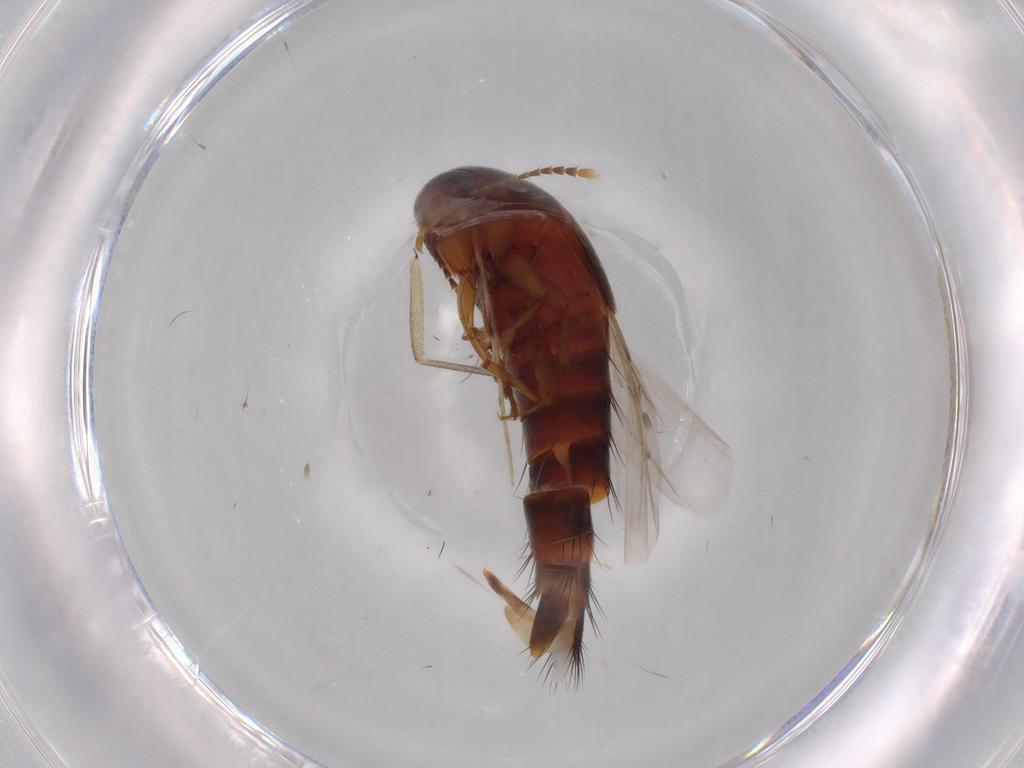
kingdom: Animalia
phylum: Arthropoda
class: Insecta
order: Coleoptera
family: Staphylinidae
